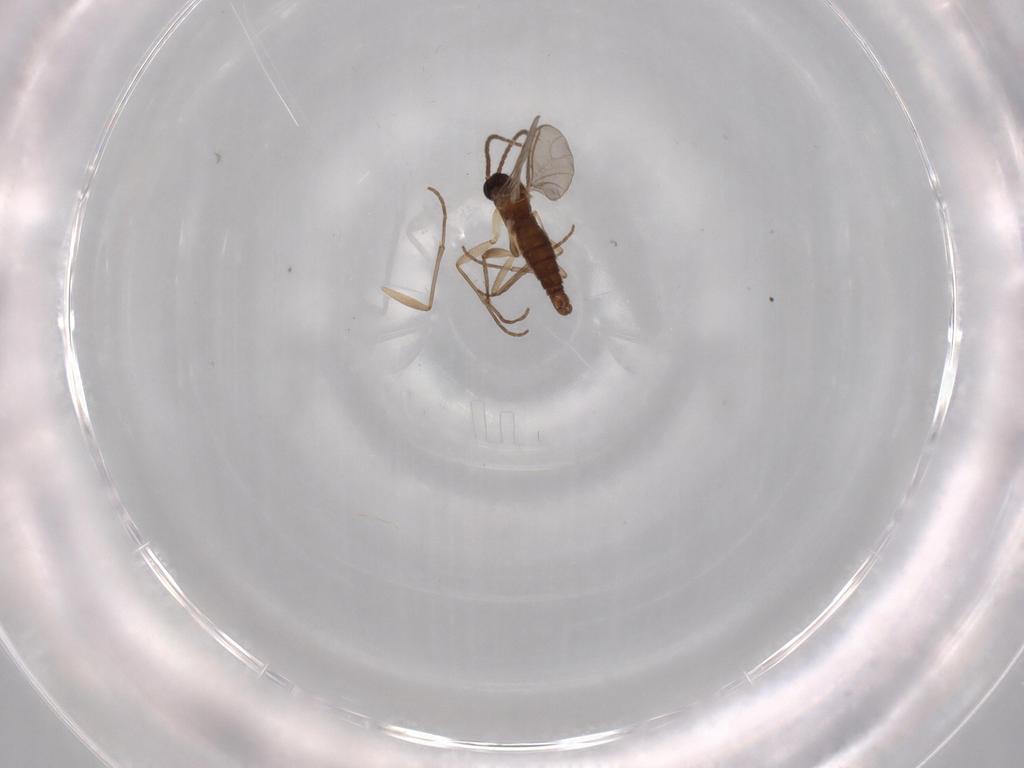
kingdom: Animalia
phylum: Arthropoda
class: Insecta
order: Diptera
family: Sciaridae
